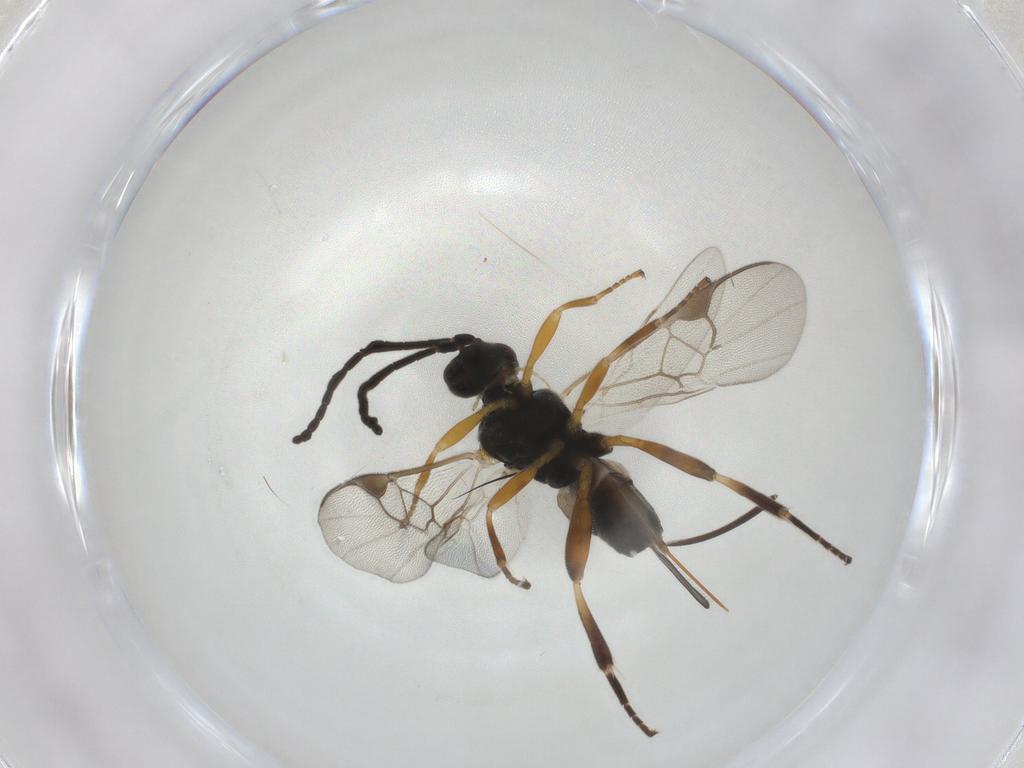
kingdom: Animalia
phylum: Arthropoda
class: Insecta
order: Hymenoptera
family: Braconidae
